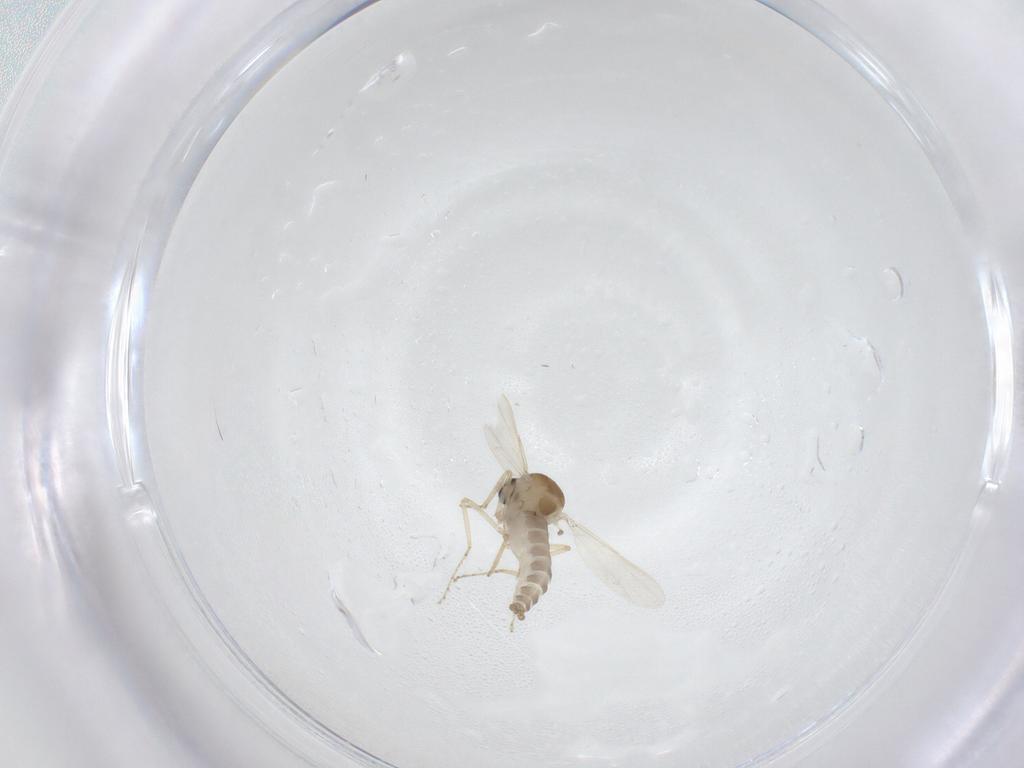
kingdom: Animalia
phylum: Arthropoda
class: Insecta
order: Diptera
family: Ceratopogonidae
